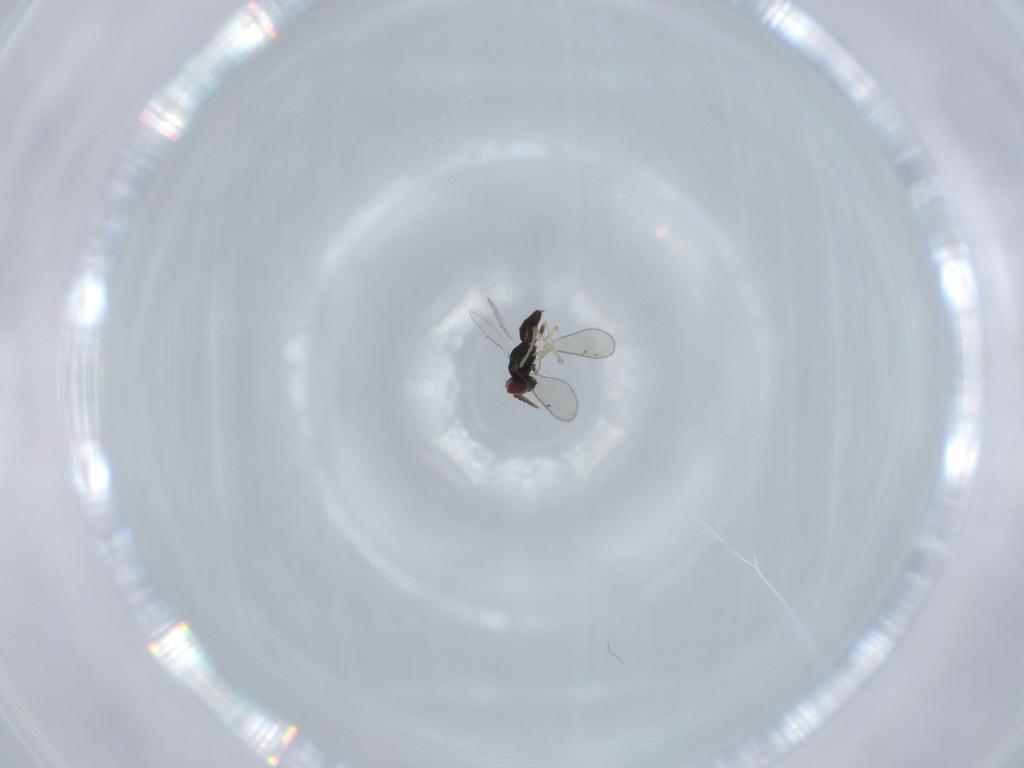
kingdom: Animalia
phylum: Arthropoda
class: Insecta
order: Hymenoptera
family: Eulophidae
